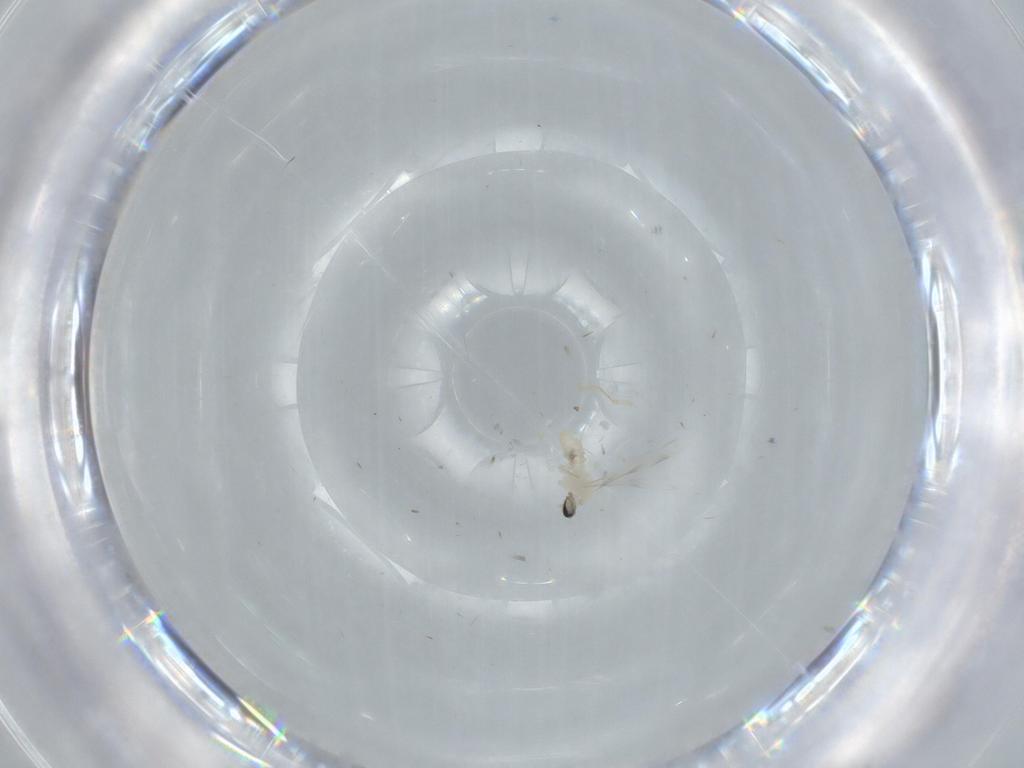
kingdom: Animalia
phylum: Arthropoda
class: Insecta
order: Diptera
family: Cecidomyiidae
